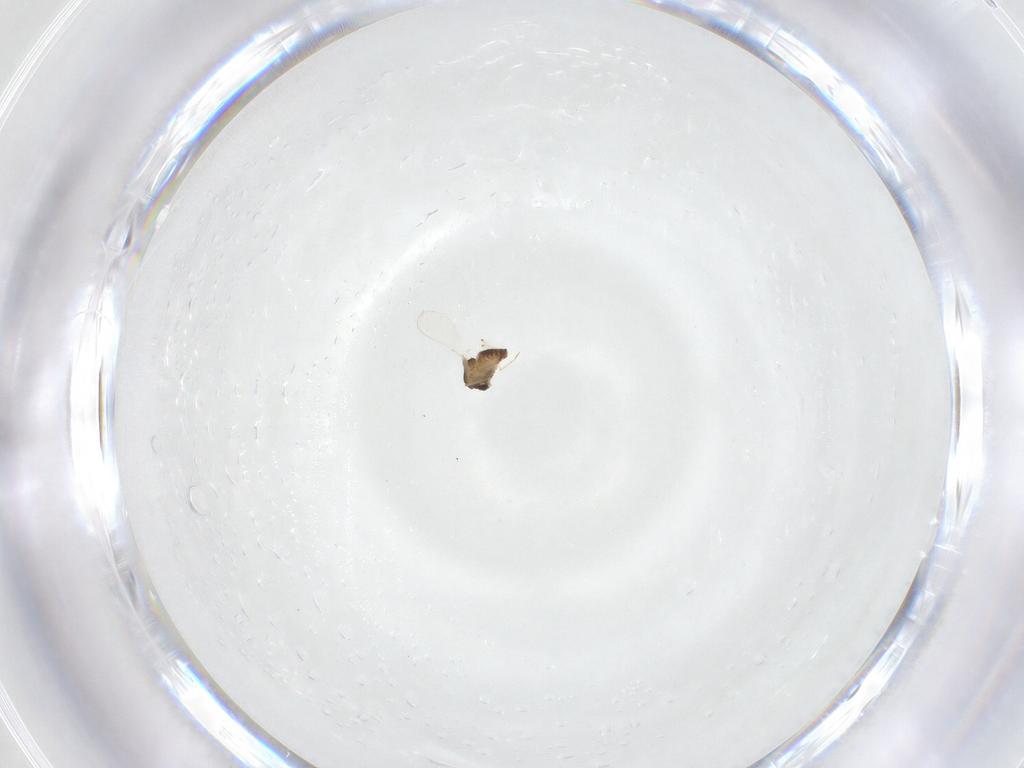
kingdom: Animalia
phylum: Arthropoda
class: Insecta
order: Diptera
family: Chironomidae
